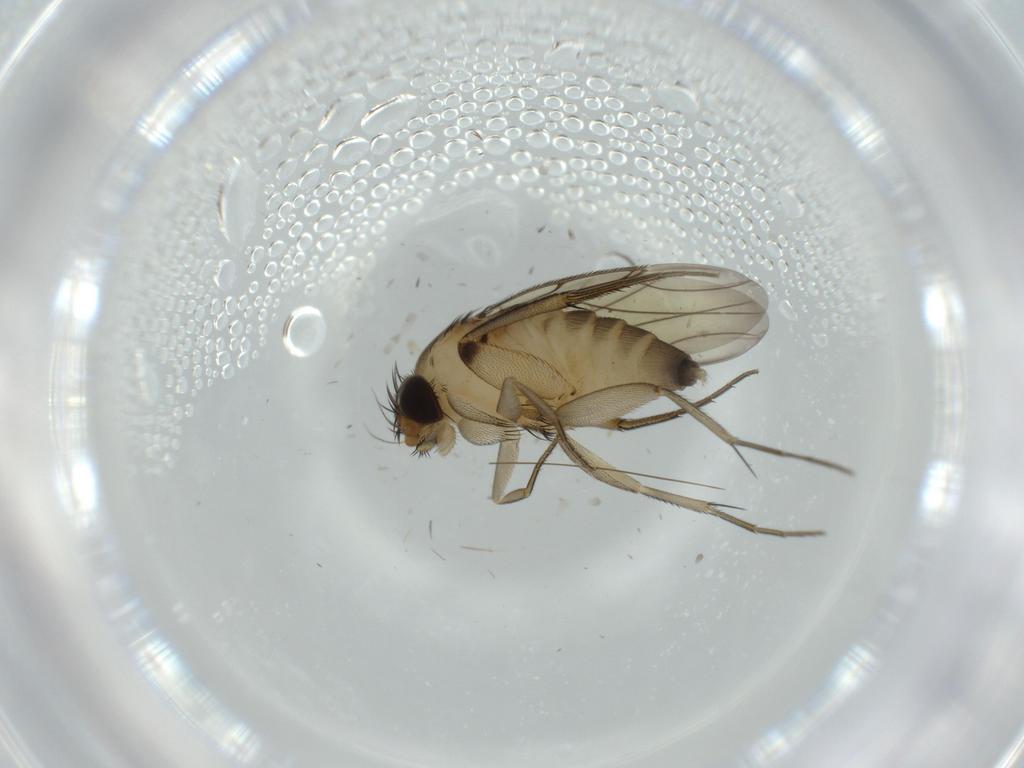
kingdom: Animalia
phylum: Arthropoda
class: Insecta
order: Diptera
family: Phoridae
